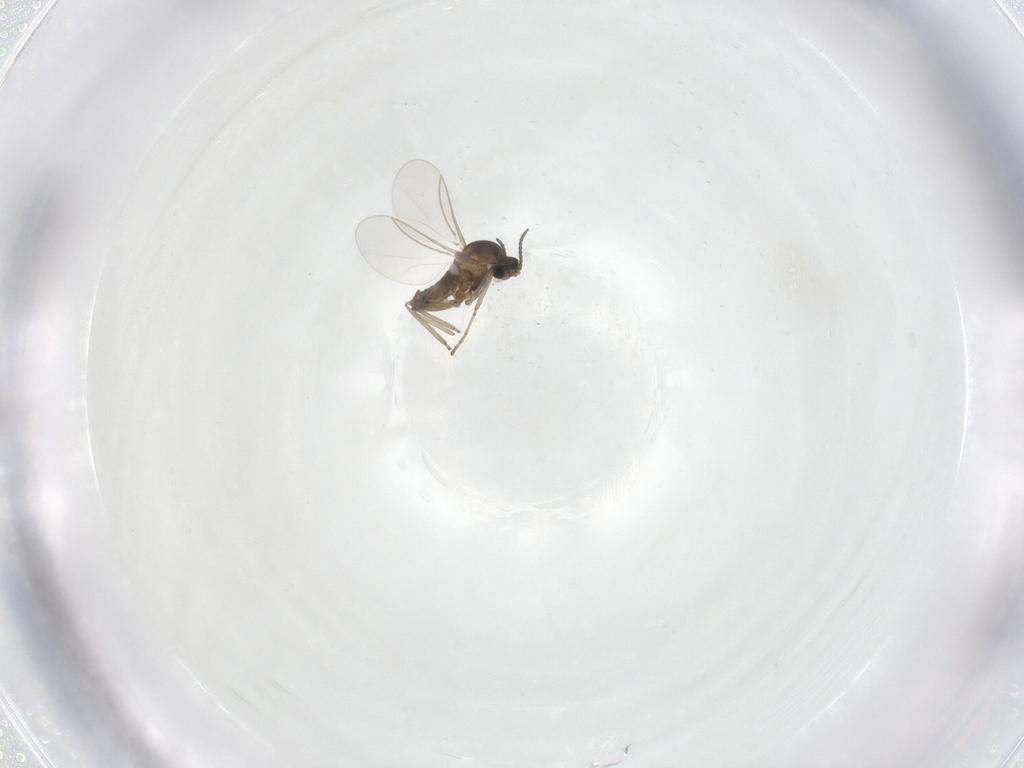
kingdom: Animalia
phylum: Arthropoda
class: Insecta
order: Diptera
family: Cecidomyiidae
